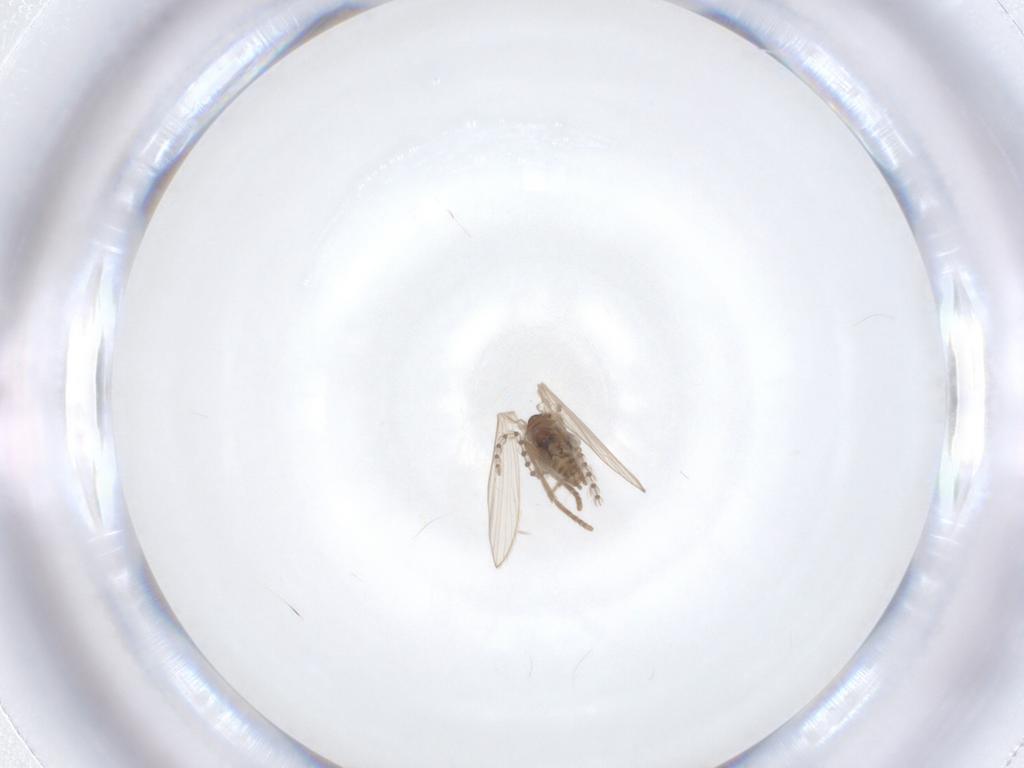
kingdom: Animalia
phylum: Arthropoda
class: Insecta
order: Diptera
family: Psychodidae
